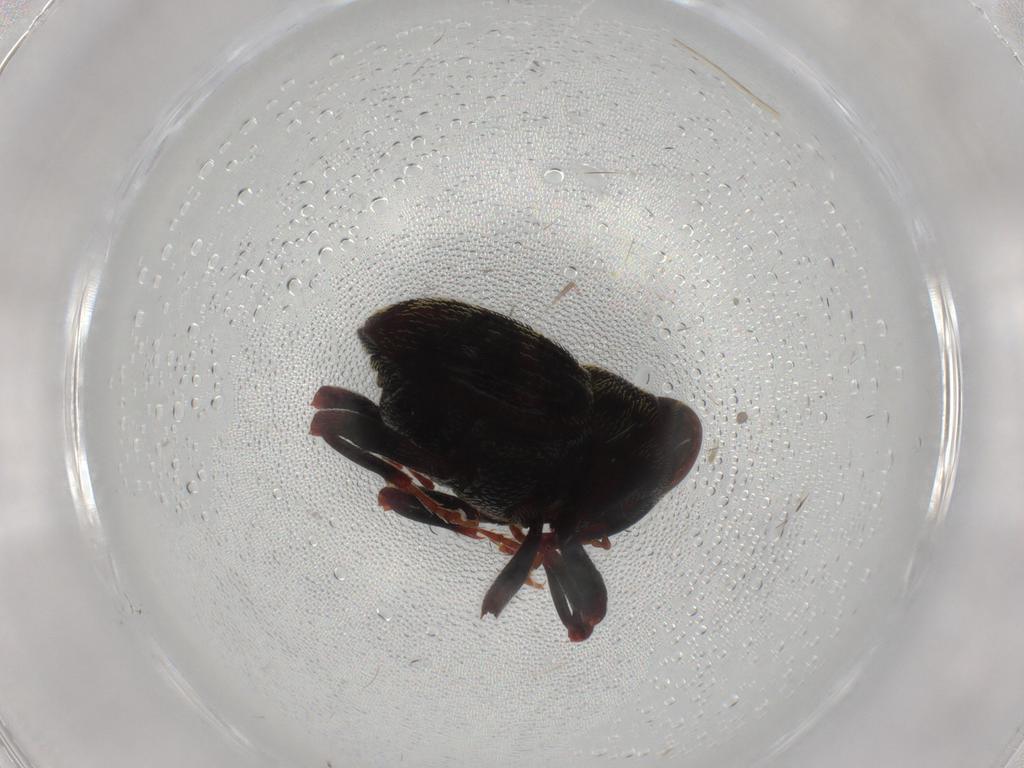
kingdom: Animalia
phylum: Arthropoda
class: Insecta
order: Coleoptera
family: Curculionidae
